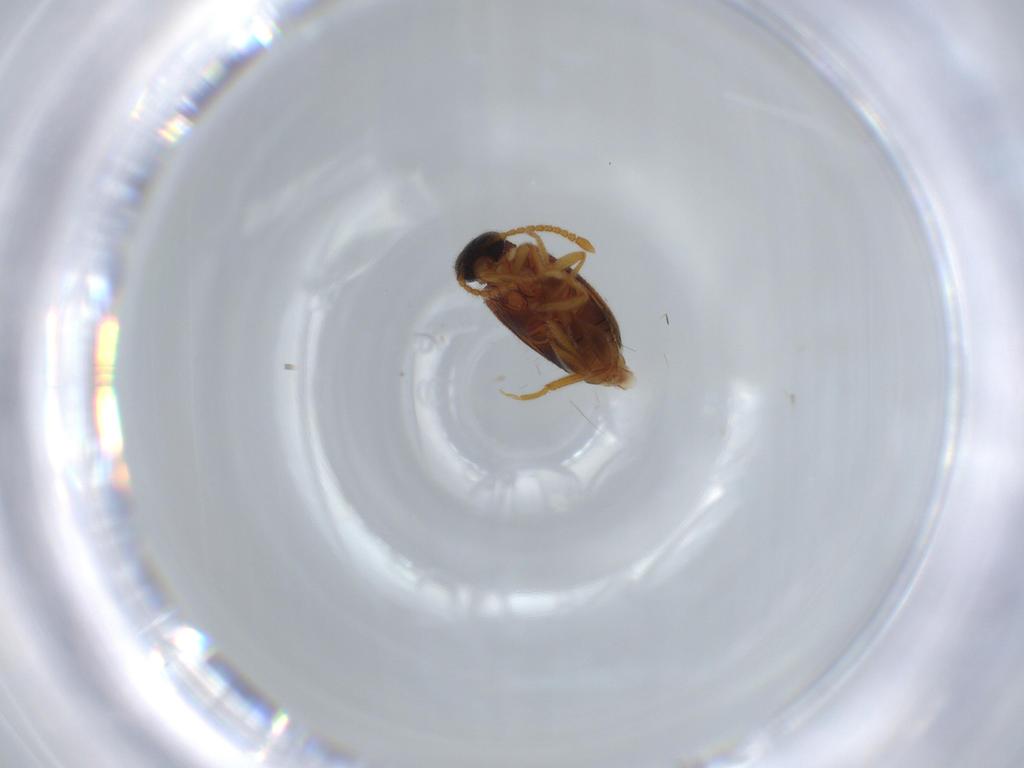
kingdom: Animalia
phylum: Arthropoda
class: Insecta
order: Coleoptera
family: Aderidae
